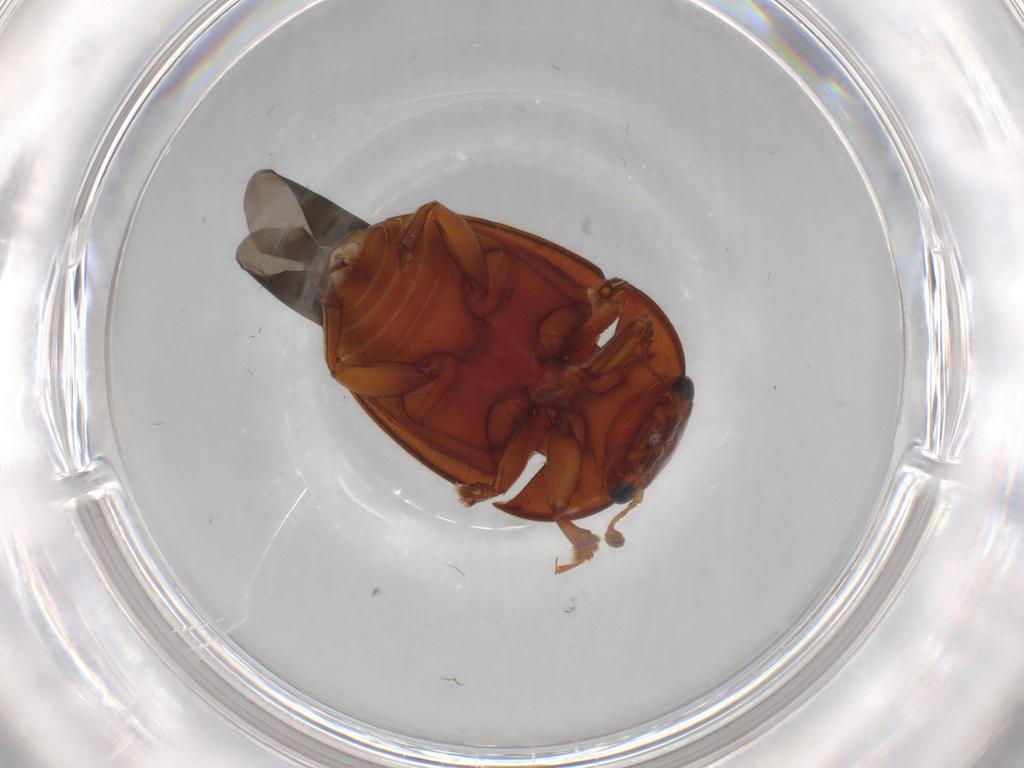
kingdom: Animalia
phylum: Arthropoda
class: Insecta
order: Coleoptera
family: Nitidulidae
